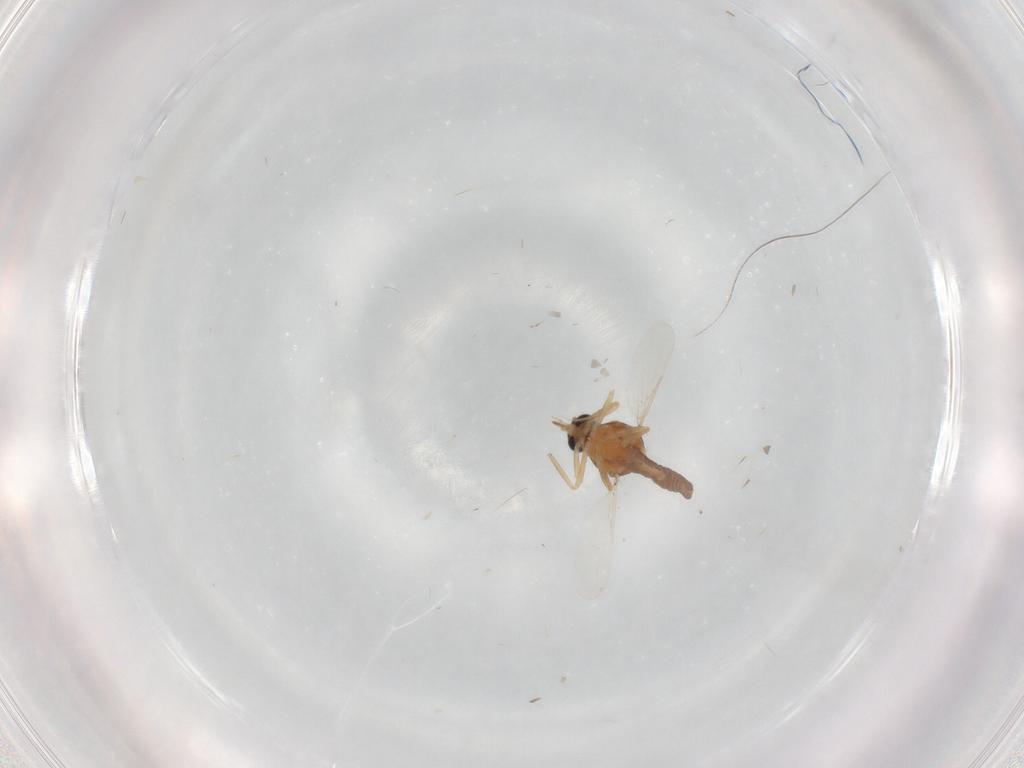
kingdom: Animalia
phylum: Arthropoda
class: Insecta
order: Diptera
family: Ceratopogonidae
